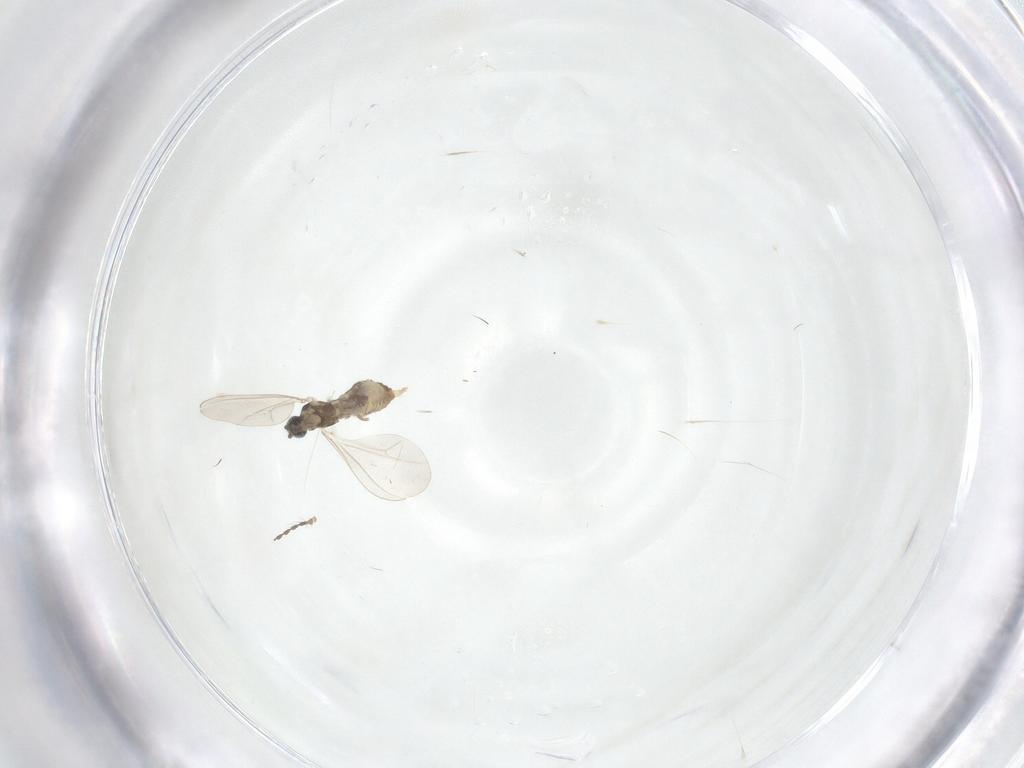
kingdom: Animalia
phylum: Arthropoda
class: Insecta
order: Diptera
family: Cecidomyiidae
